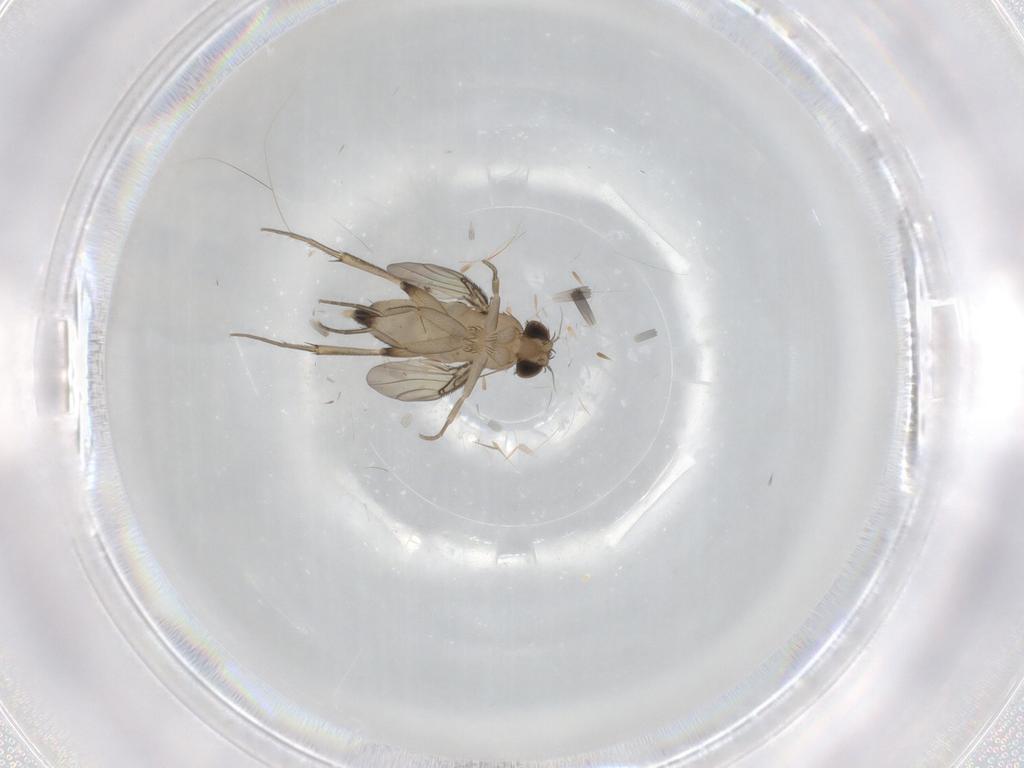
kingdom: Animalia
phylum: Arthropoda
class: Insecta
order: Diptera
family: Phoridae
